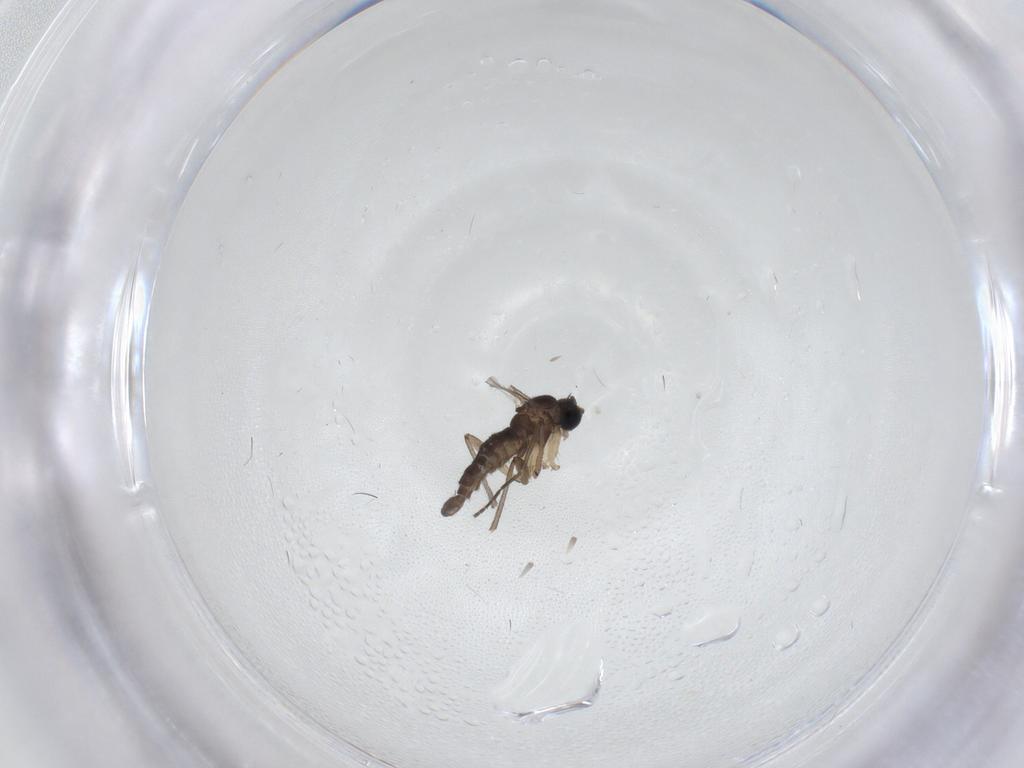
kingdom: Animalia
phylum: Arthropoda
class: Insecta
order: Diptera
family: Sciaridae
